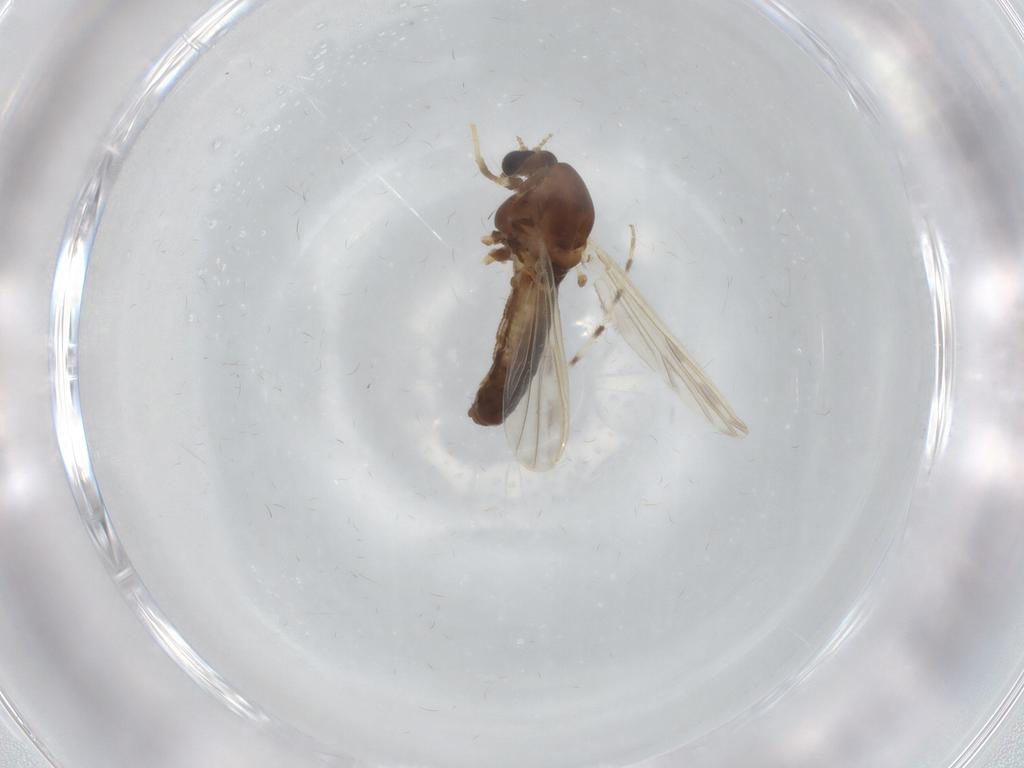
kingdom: Animalia
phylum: Arthropoda
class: Insecta
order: Diptera
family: Chironomidae
